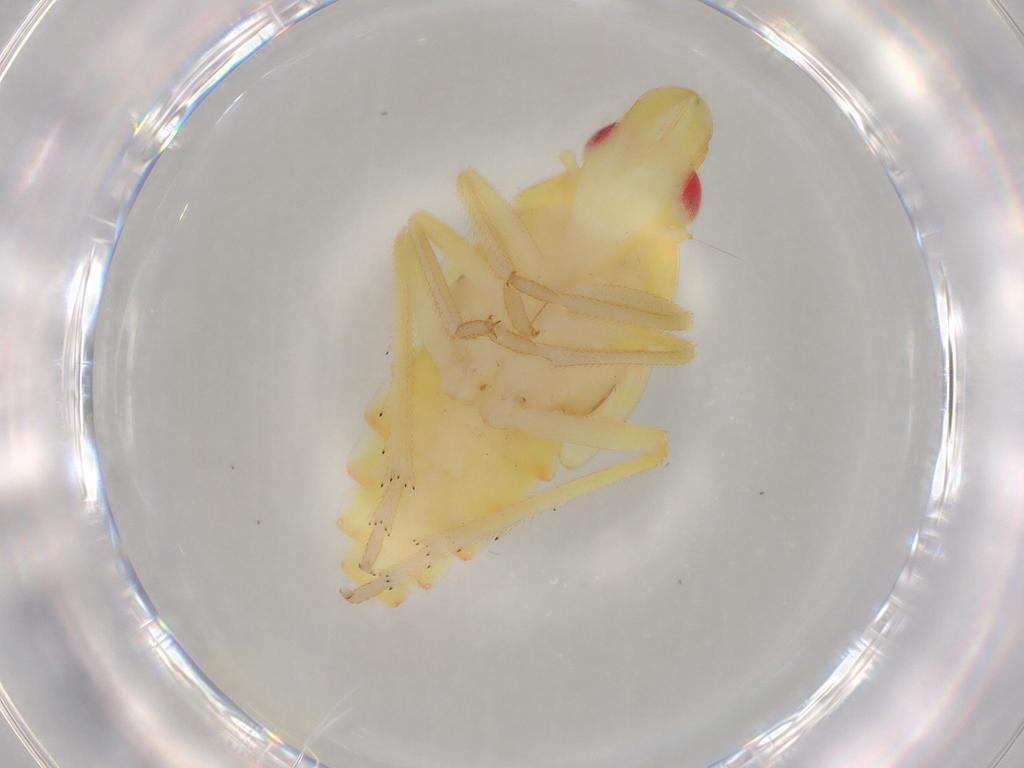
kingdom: Animalia
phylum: Arthropoda
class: Insecta
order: Hemiptera
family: Tropiduchidae
